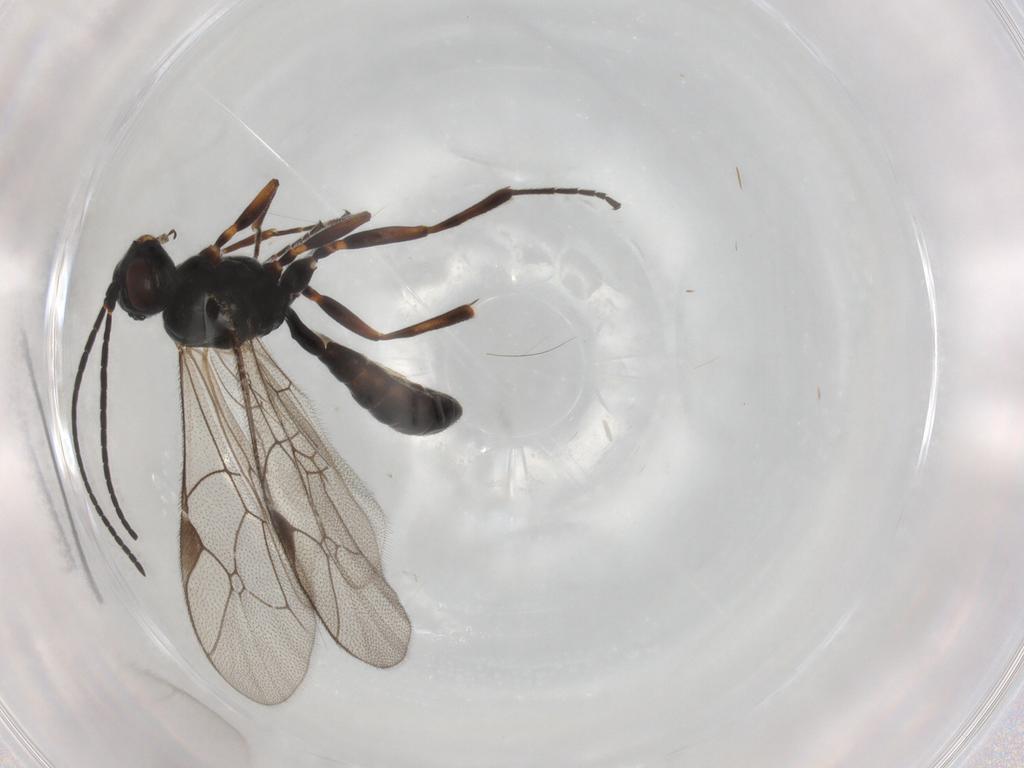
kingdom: Animalia
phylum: Arthropoda
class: Insecta
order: Hymenoptera
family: Ichneumonidae
